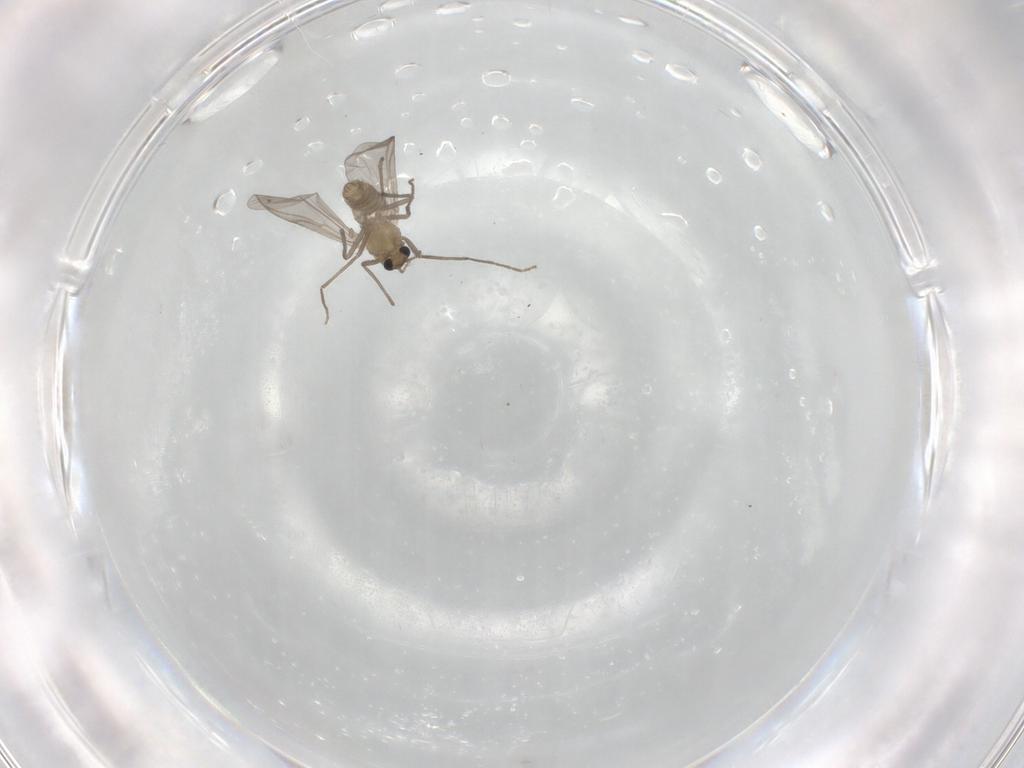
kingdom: Animalia
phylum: Arthropoda
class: Insecta
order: Diptera
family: Chironomidae
